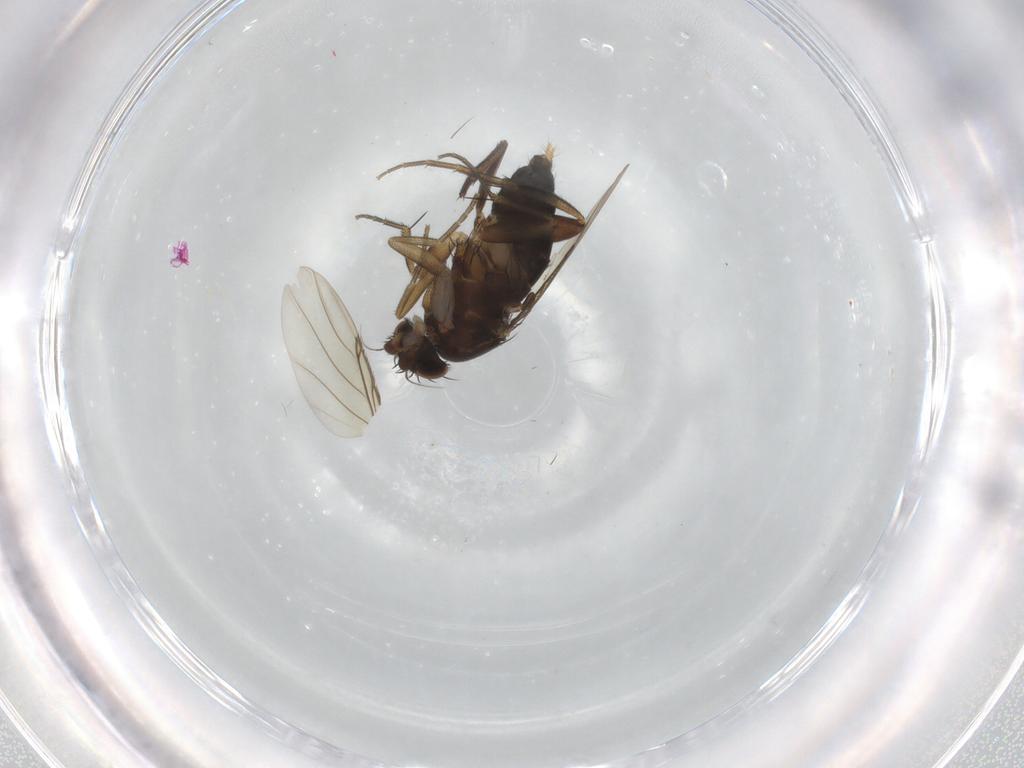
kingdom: Animalia
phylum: Arthropoda
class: Insecta
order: Diptera
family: Phoridae
